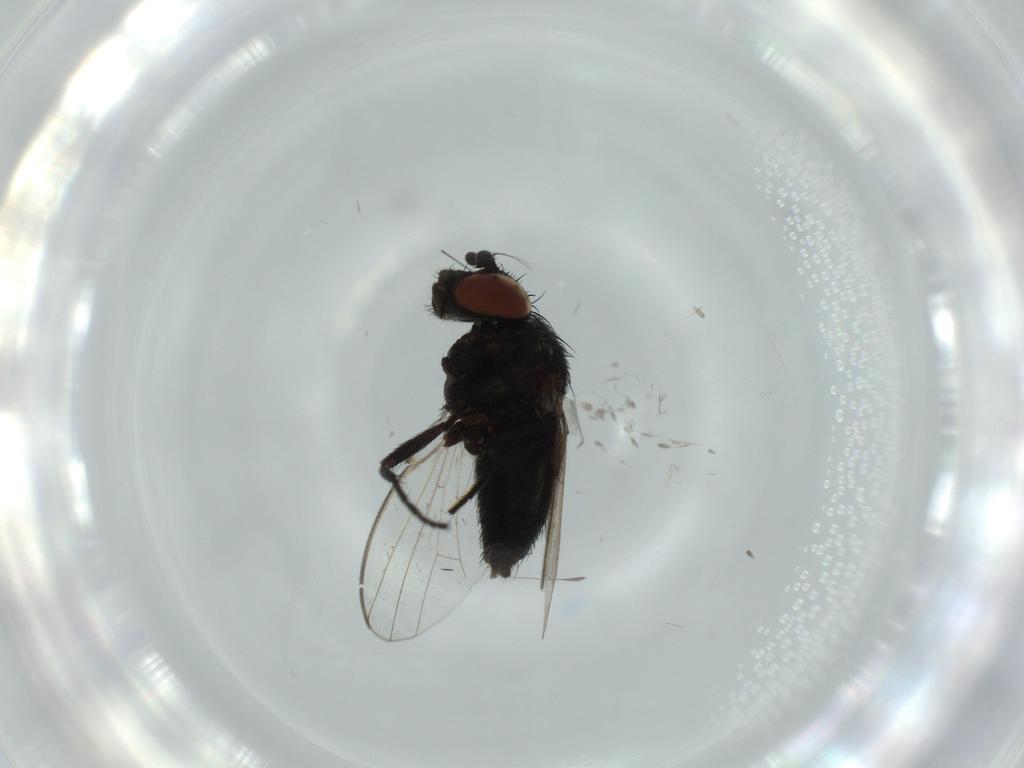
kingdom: Animalia
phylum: Arthropoda
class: Insecta
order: Diptera
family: Milichiidae
